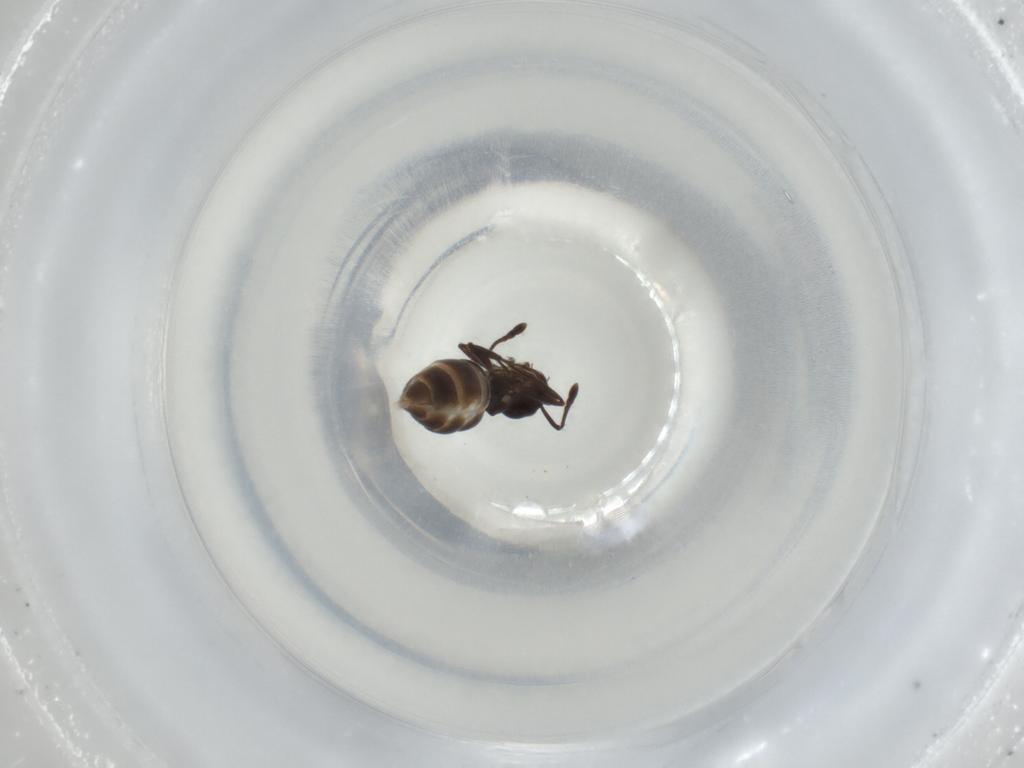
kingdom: Animalia
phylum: Arthropoda
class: Insecta
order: Hymenoptera
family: Formicidae
